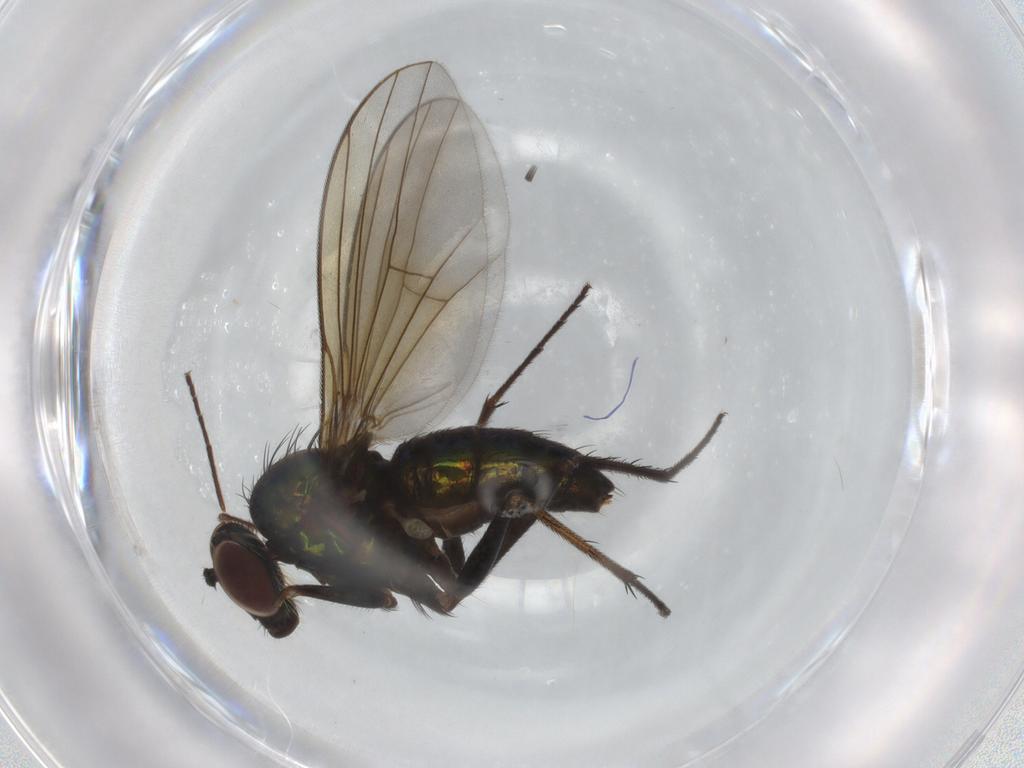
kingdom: Animalia
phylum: Arthropoda
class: Insecta
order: Diptera
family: Dolichopodidae
